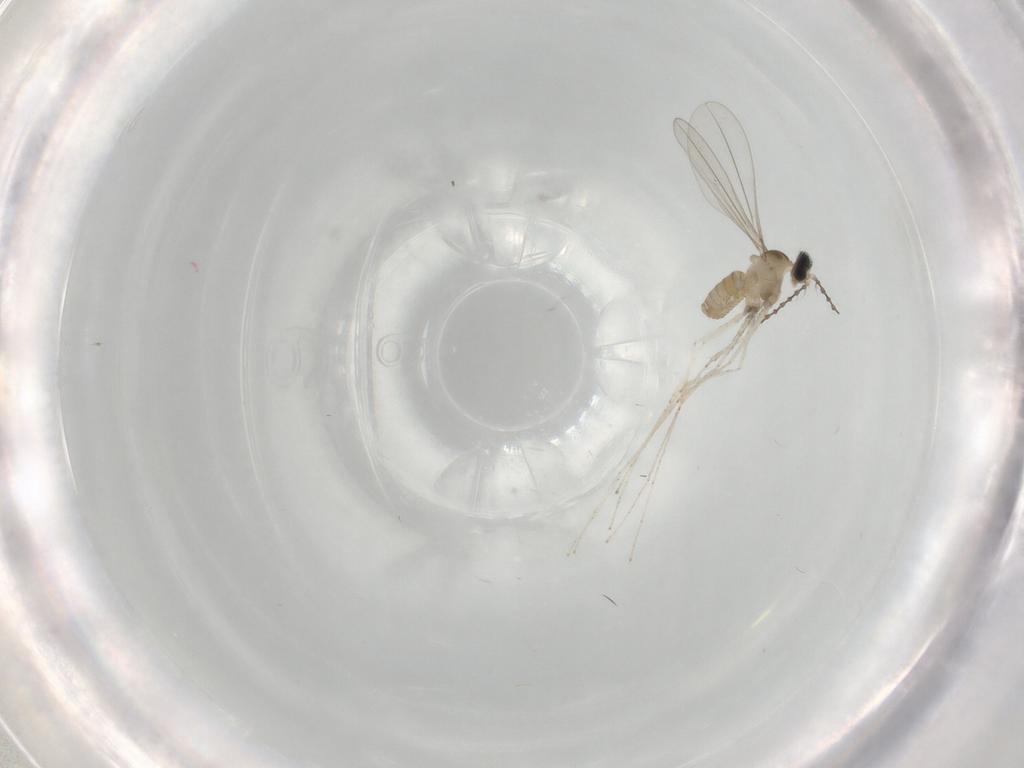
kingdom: Animalia
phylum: Arthropoda
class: Insecta
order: Diptera
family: Cecidomyiidae
